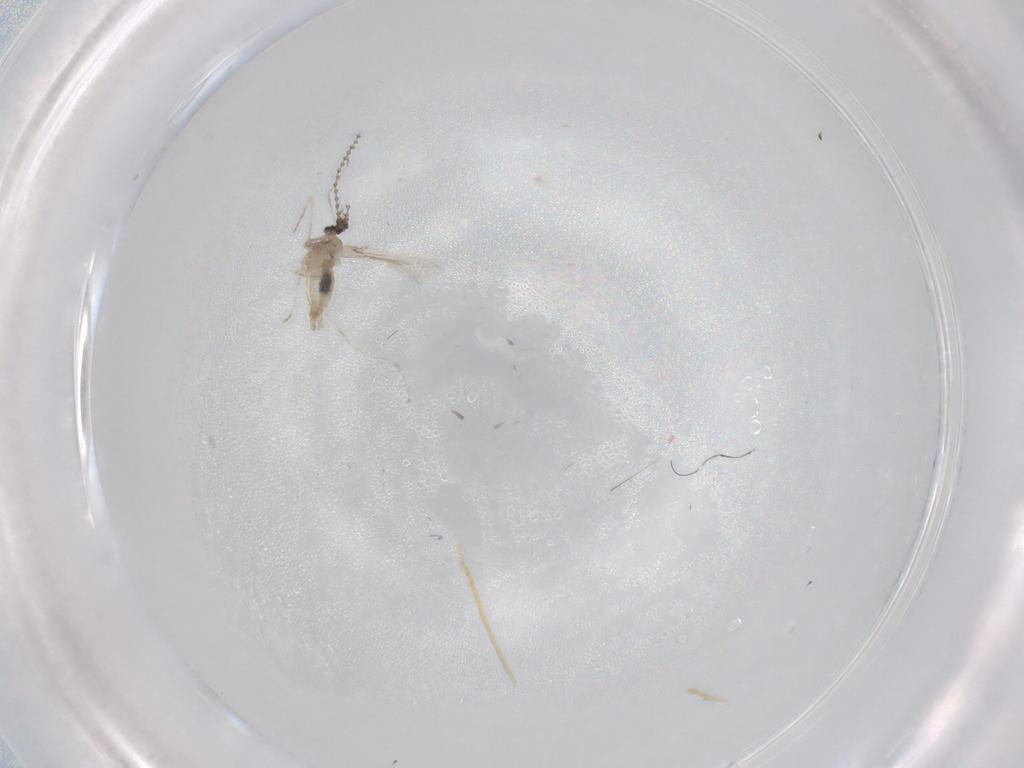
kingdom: Animalia
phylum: Arthropoda
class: Insecta
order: Diptera
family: Cecidomyiidae
